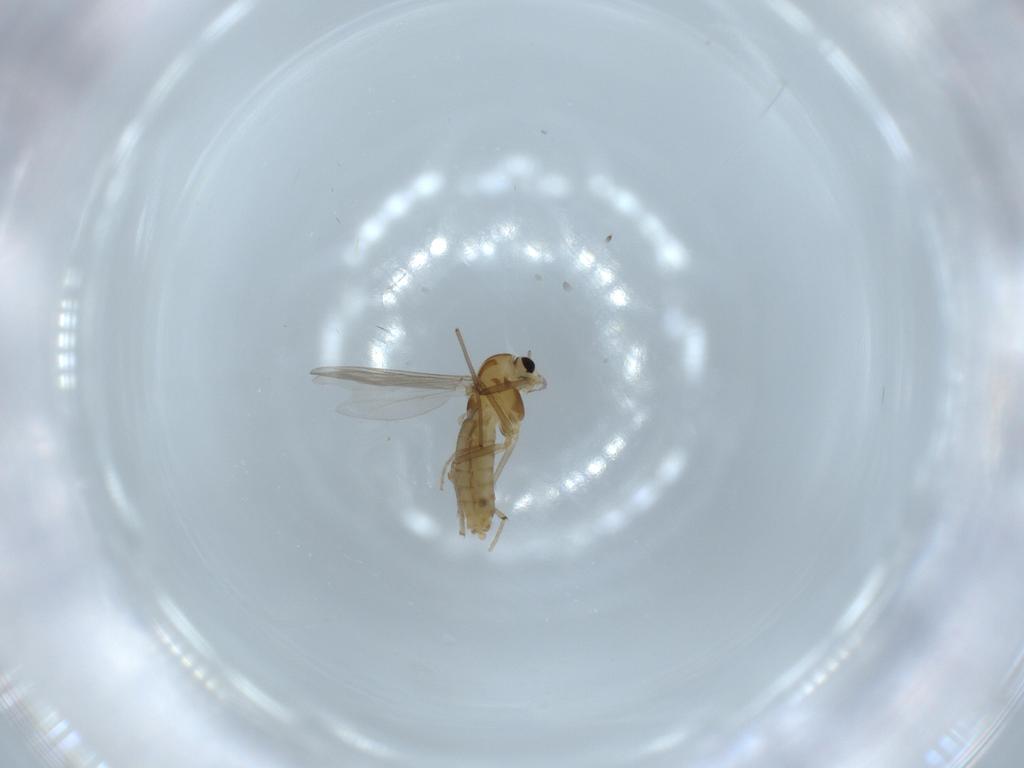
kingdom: Animalia
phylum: Arthropoda
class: Insecta
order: Diptera
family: Chironomidae
